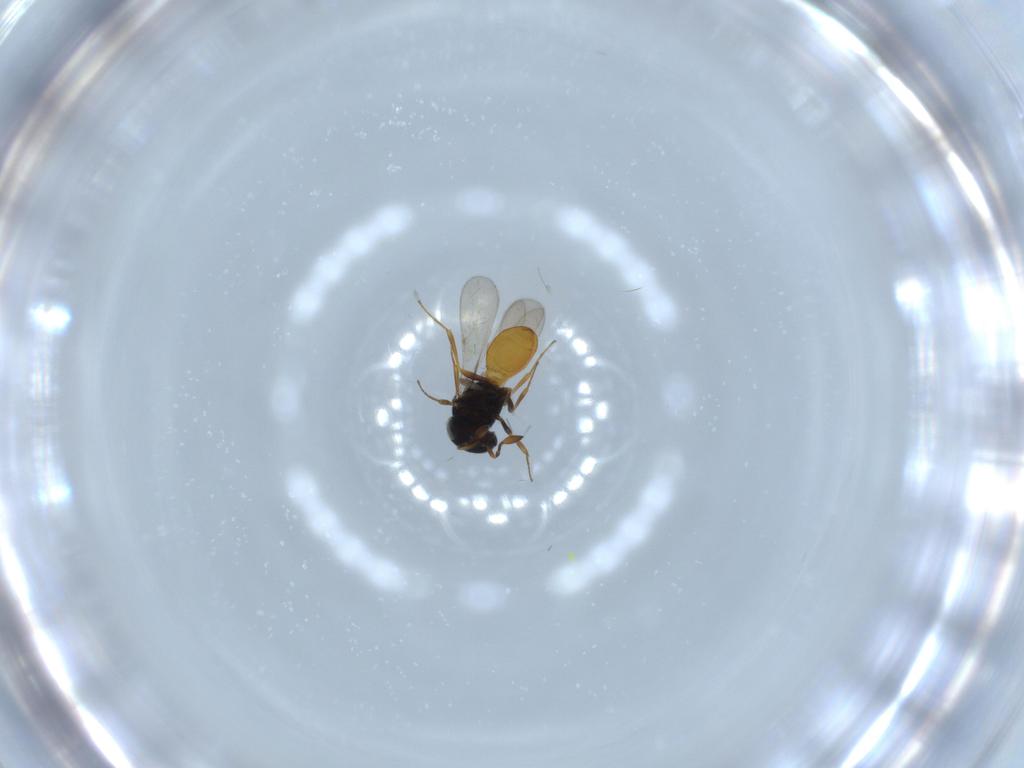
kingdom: Animalia
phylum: Arthropoda
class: Insecta
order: Hymenoptera
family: Scelionidae
